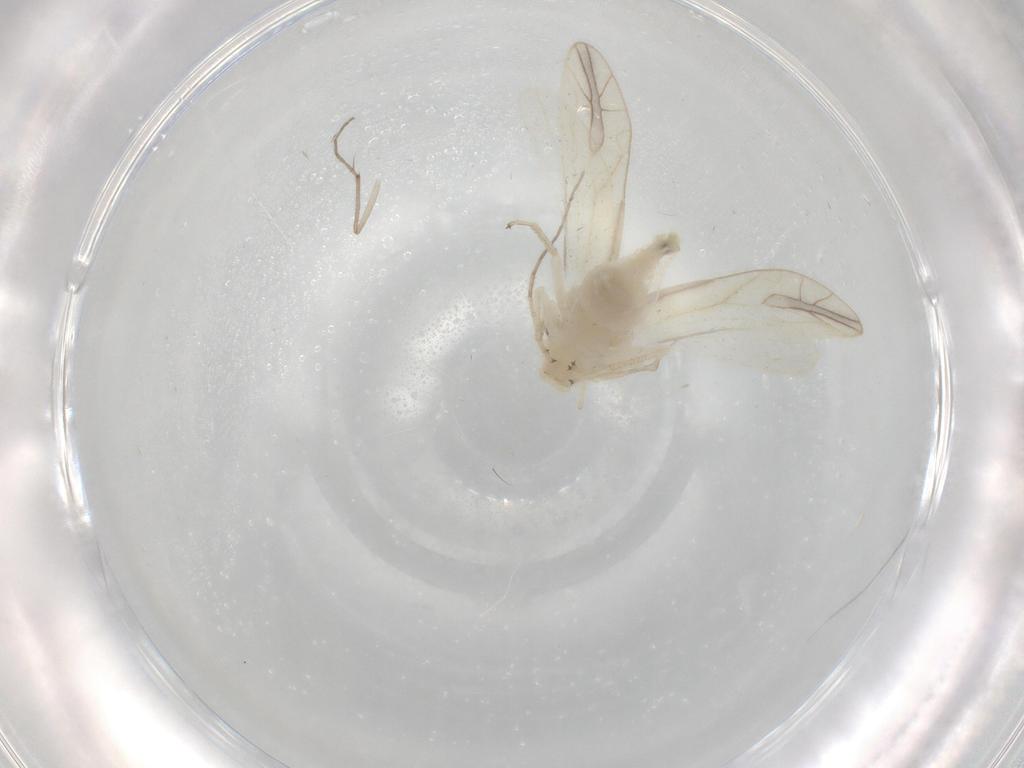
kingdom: Animalia
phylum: Arthropoda
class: Insecta
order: Psocodea
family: Caeciliusidae
